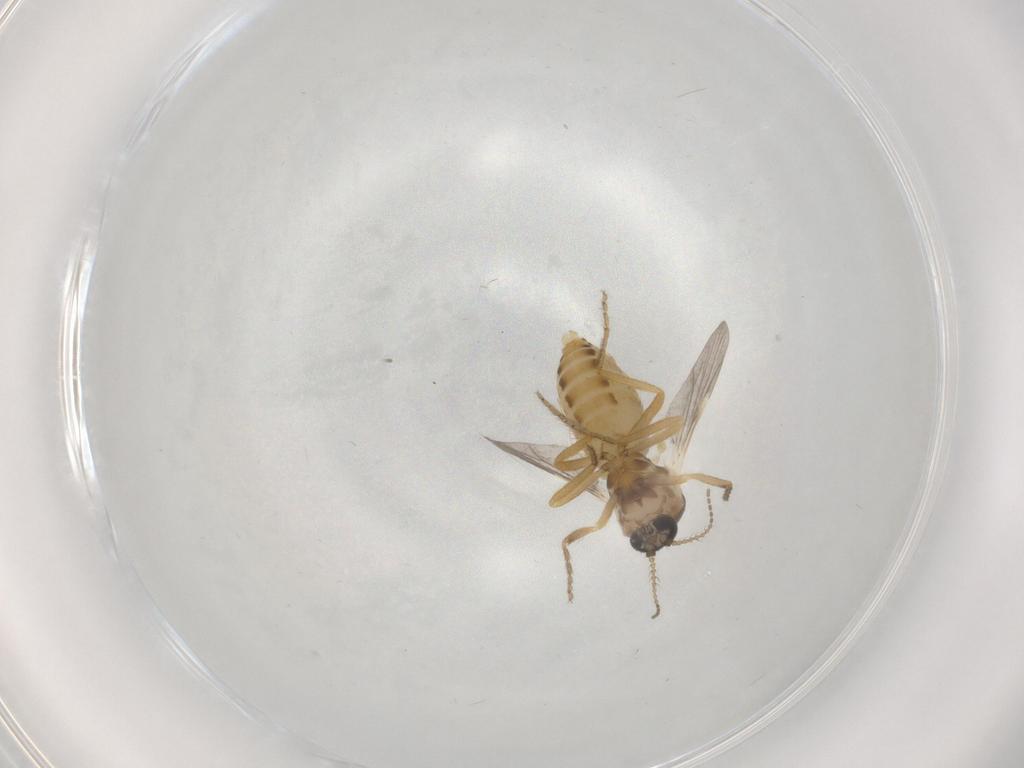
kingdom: Animalia
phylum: Arthropoda
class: Insecta
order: Diptera
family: Ceratopogonidae
